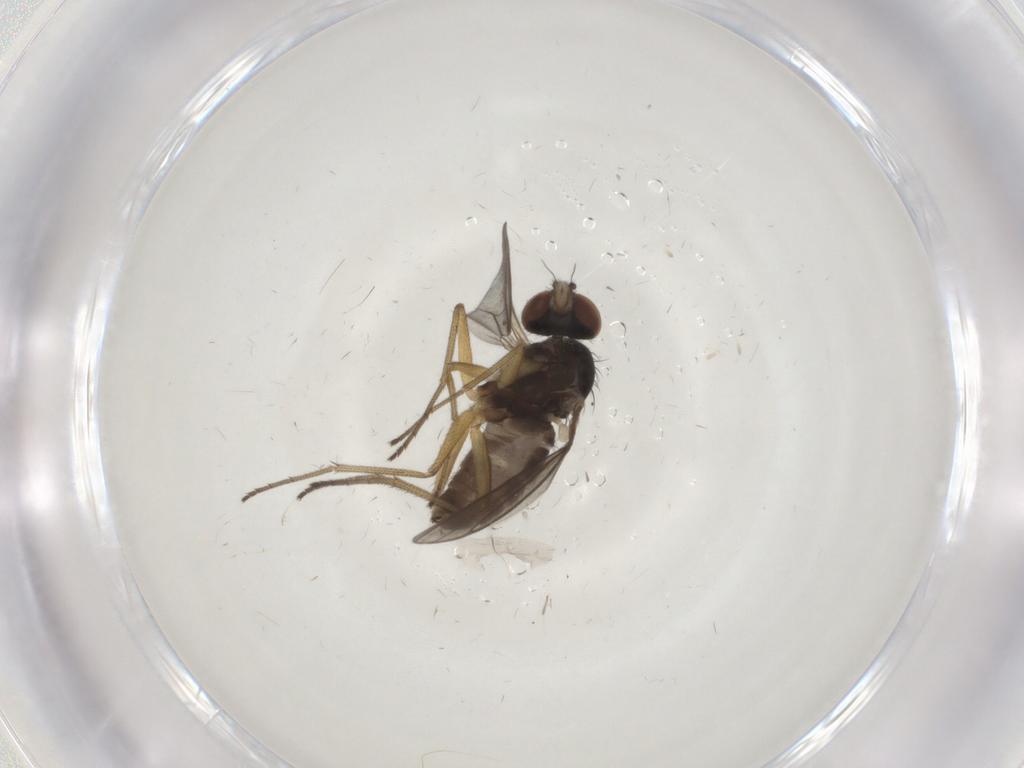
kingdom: Animalia
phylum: Arthropoda
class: Insecta
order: Diptera
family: Dolichopodidae
